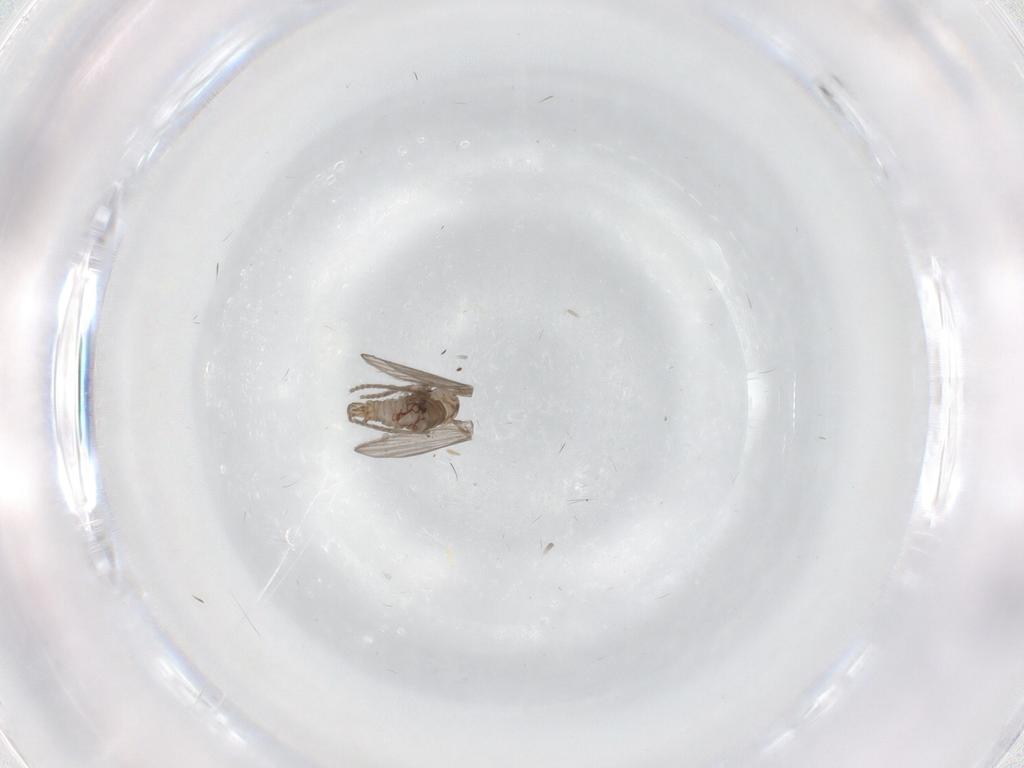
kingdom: Animalia
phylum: Arthropoda
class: Insecta
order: Diptera
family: Psychodidae
